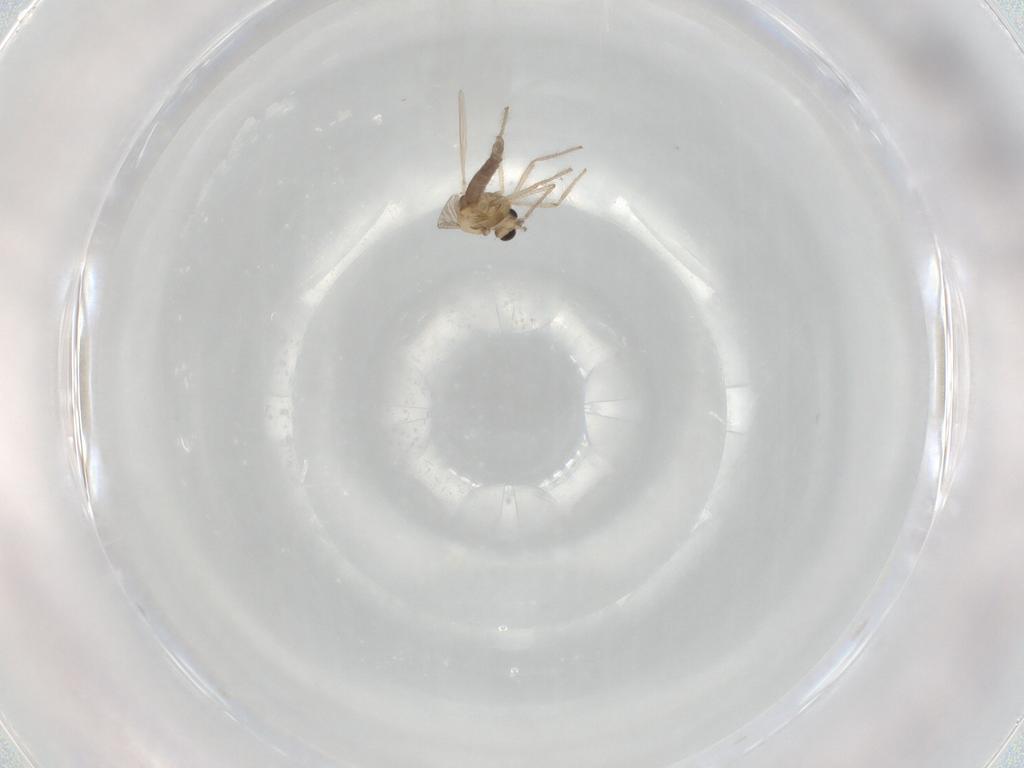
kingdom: Animalia
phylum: Arthropoda
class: Insecta
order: Diptera
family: Chironomidae
